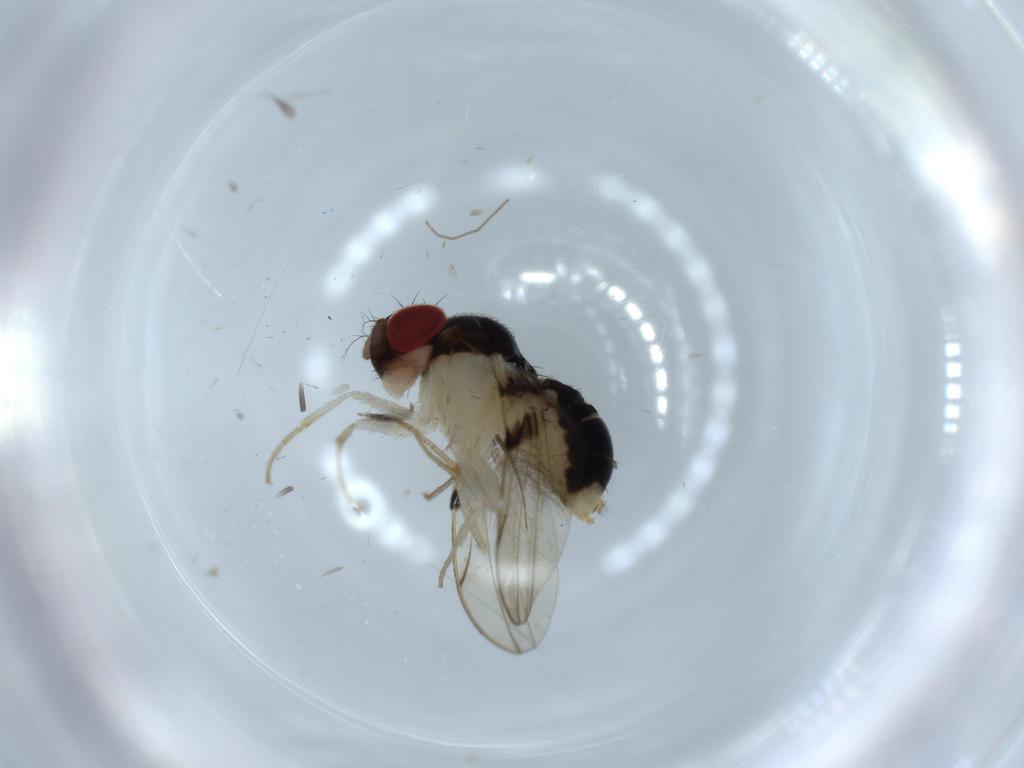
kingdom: Animalia
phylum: Arthropoda
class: Insecta
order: Diptera
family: Drosophilidae
